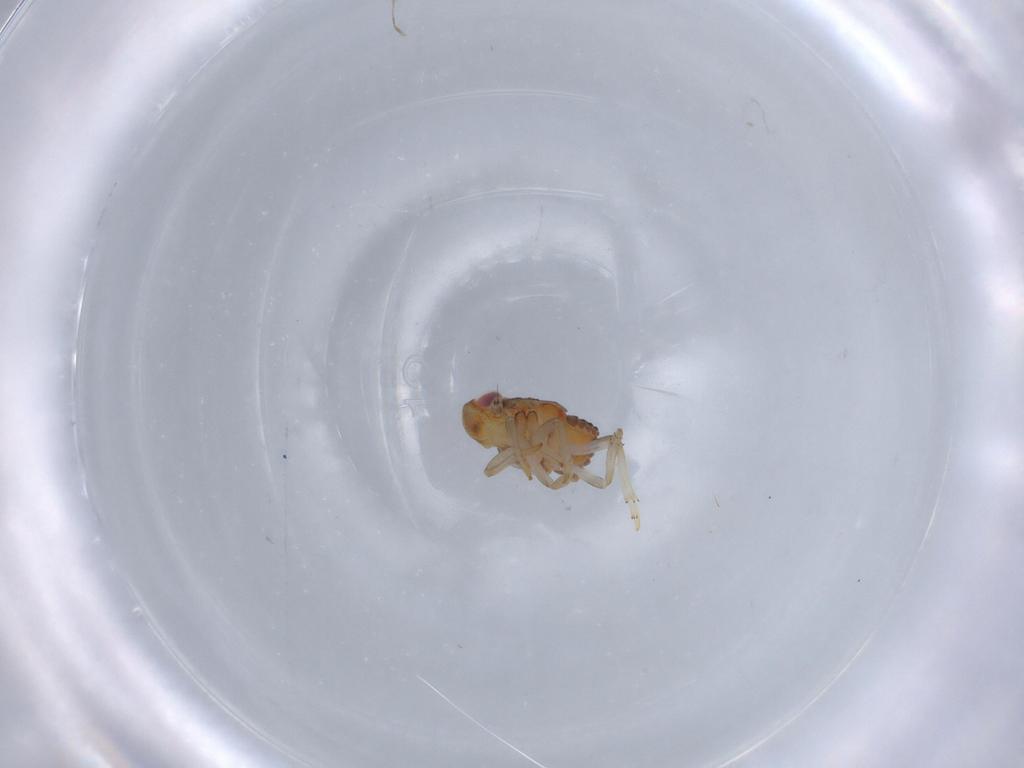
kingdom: Animalia
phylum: Arthropoda
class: Insecta
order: Hemiptera
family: Issidae
